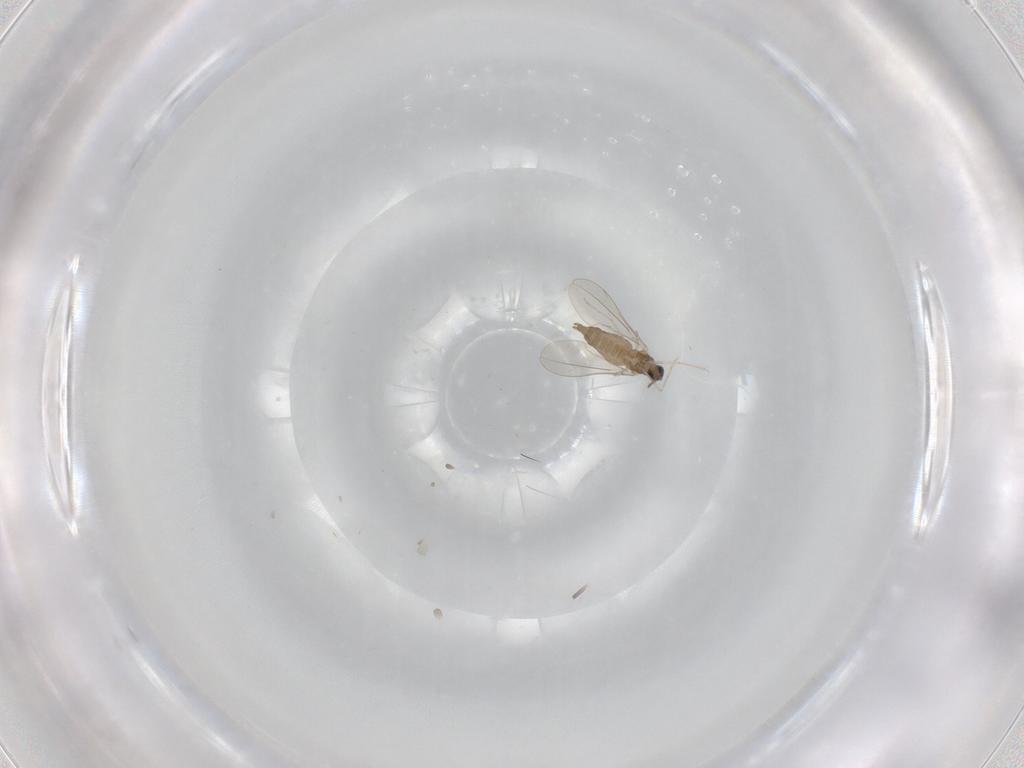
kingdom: Animalia
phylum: Arthropoda
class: Insecta
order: Diptera
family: Cecidomyiidae
